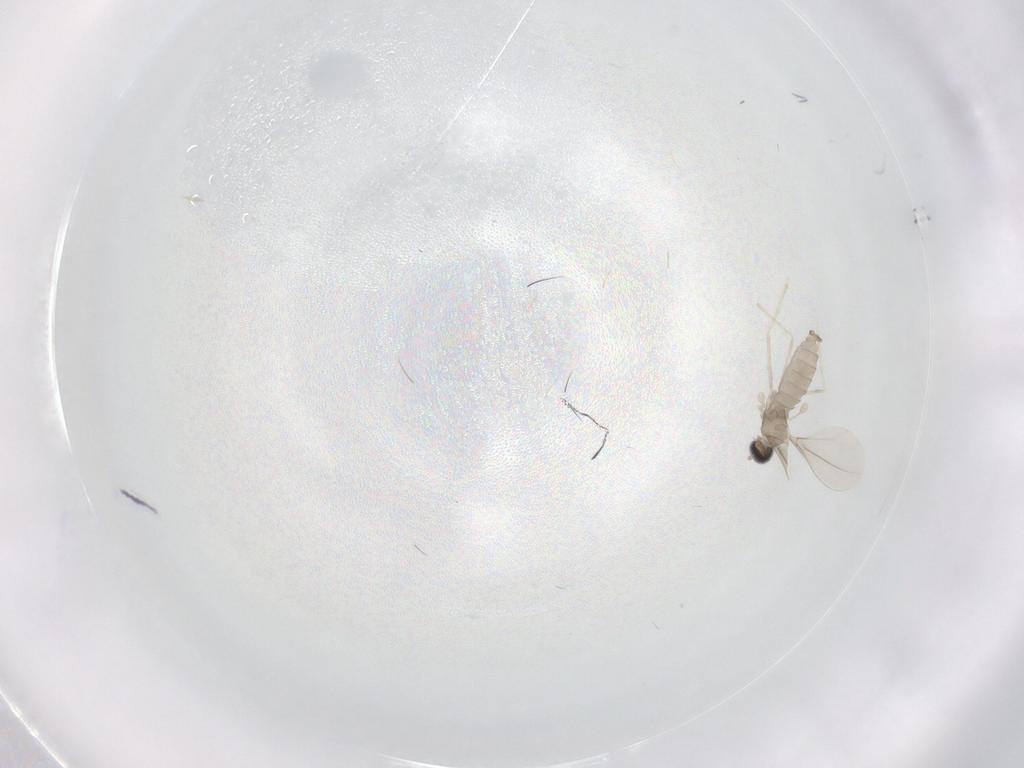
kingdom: Animalia
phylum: Arthropoda
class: Insecta
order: Diptera
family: Cecidomyiidae
